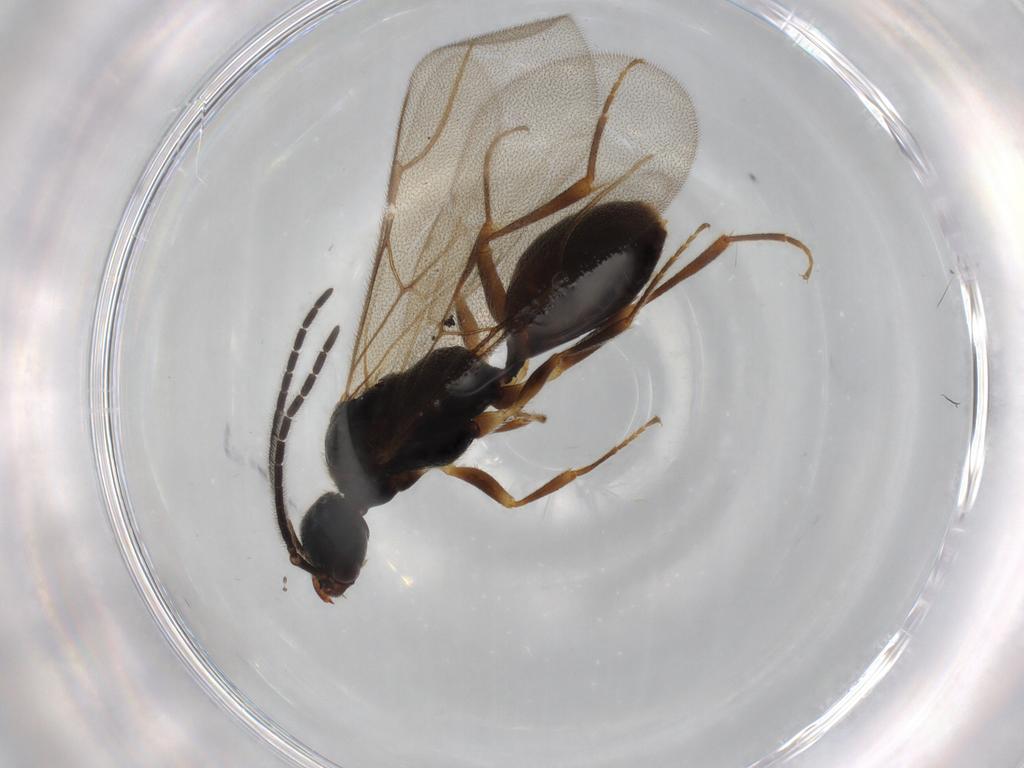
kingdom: Animalia
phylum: Arthropoda
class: Insecta
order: Hymenoptera
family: Bethylidae
